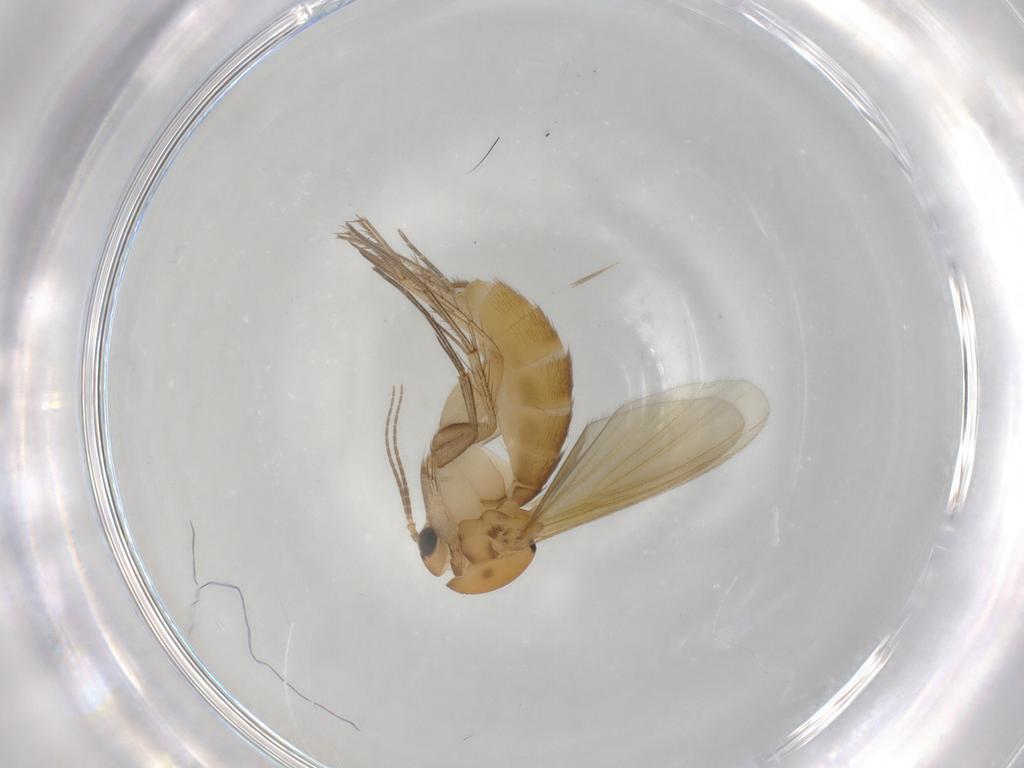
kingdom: Animalia
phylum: Arthropoda
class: Insecta
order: Diptera
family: Mycetophilidae
